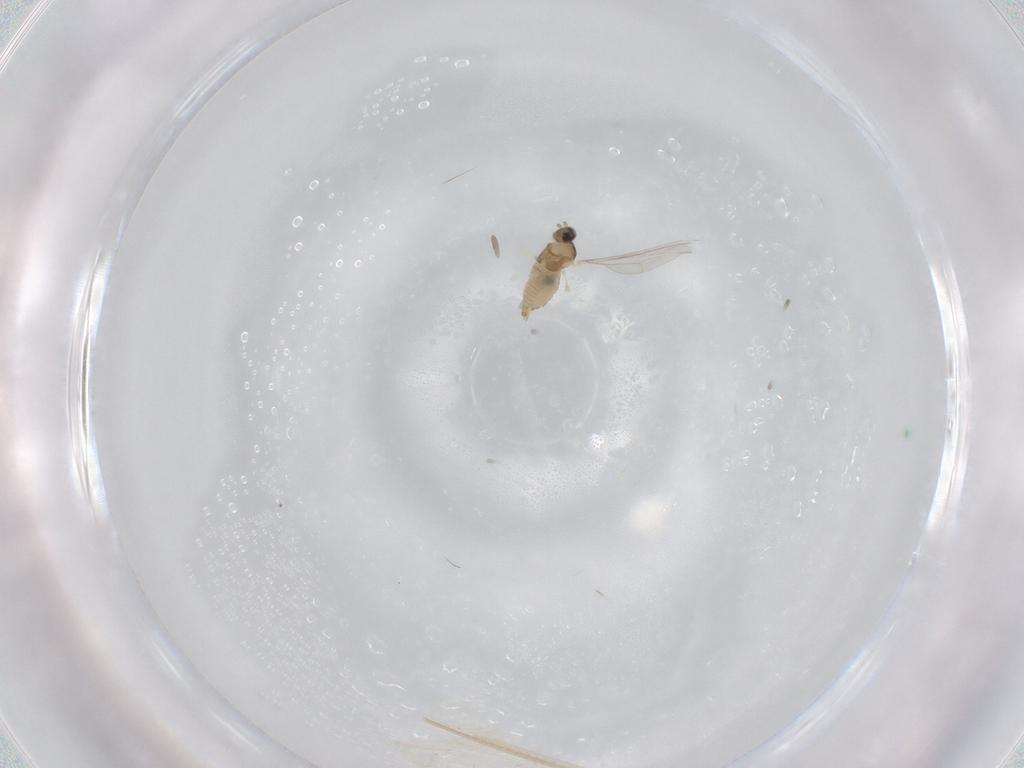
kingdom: Animalia
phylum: Arthropoda
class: Insecta
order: Diptera
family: Cecidomyiidae
